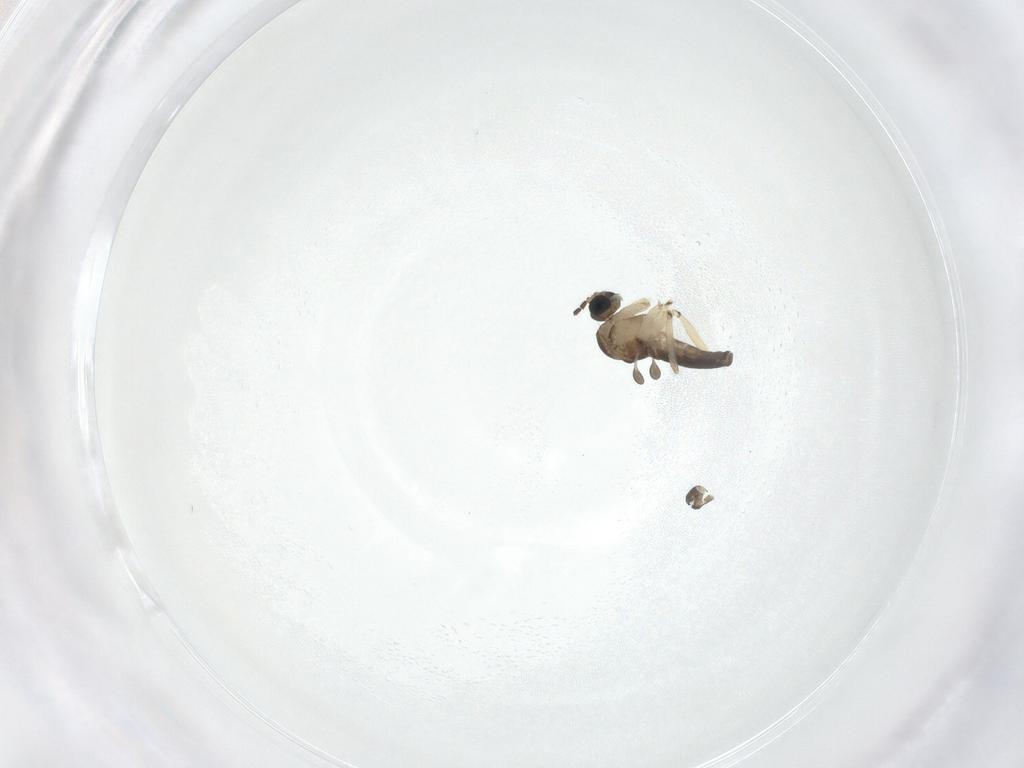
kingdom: Animalia
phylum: Arthropoda
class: Insecta
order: Diptera
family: Sciaridae
